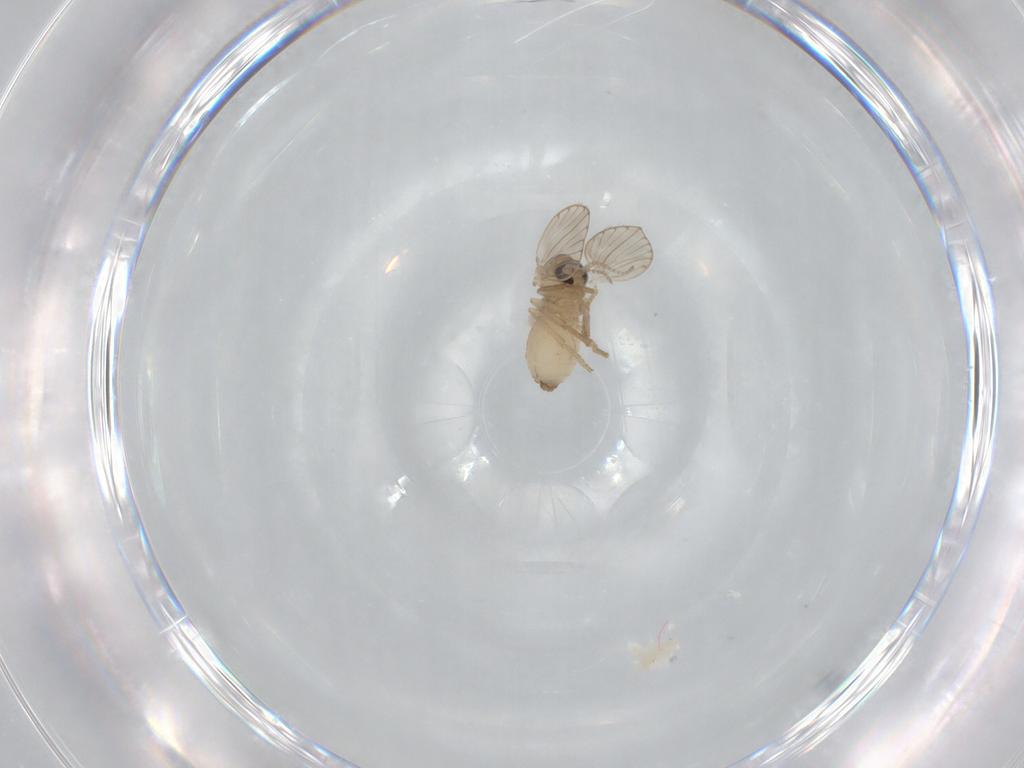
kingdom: Animalia
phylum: Arthropoda
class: Insecta
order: Diptera
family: Psychodidae
